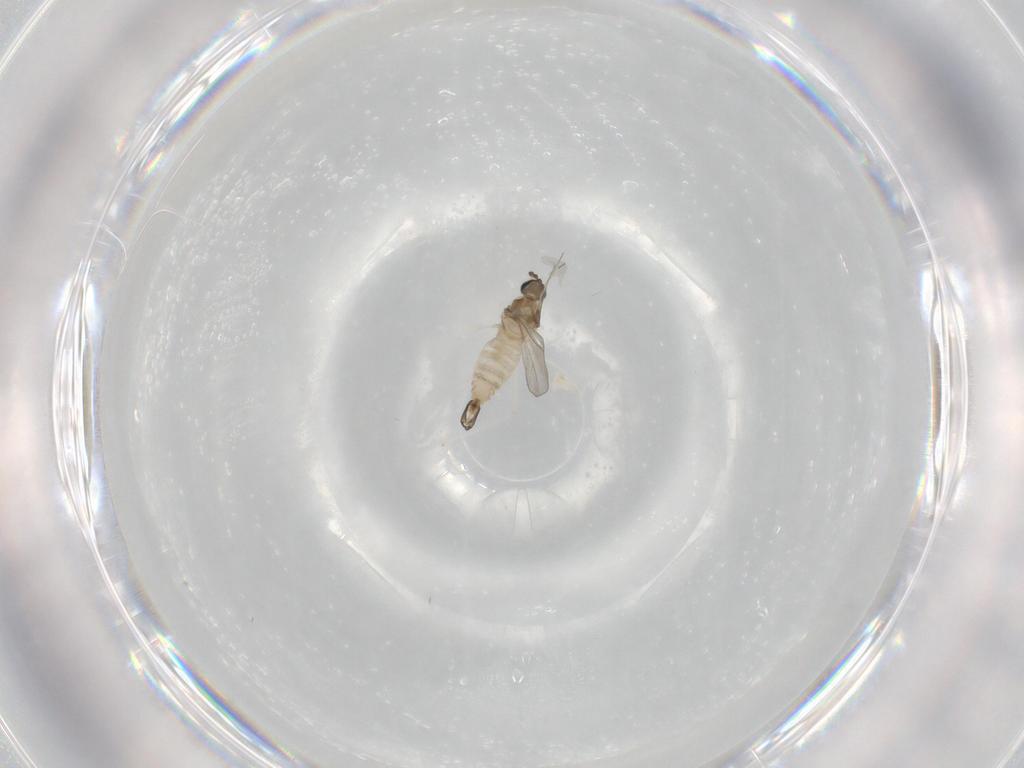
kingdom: Animalia
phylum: Arthropoda
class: Insecta
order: Diptera
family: Cecidomyiidae
